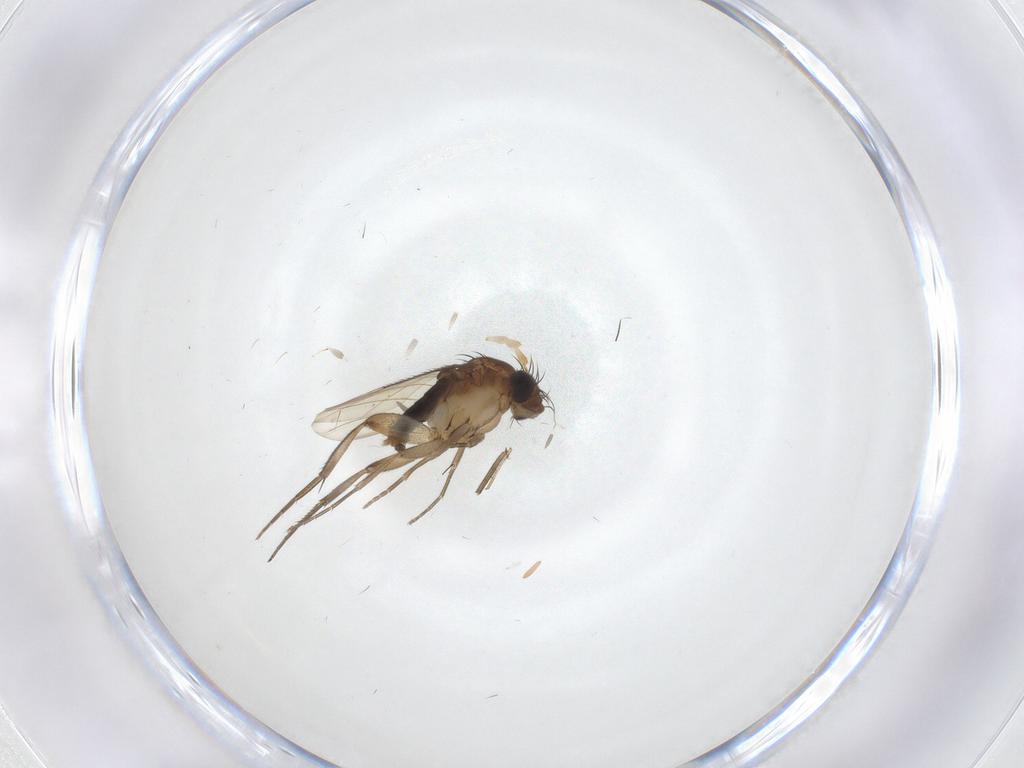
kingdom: Animalia
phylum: Arthropoda
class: Insecta
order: Diptera
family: Phoridae
